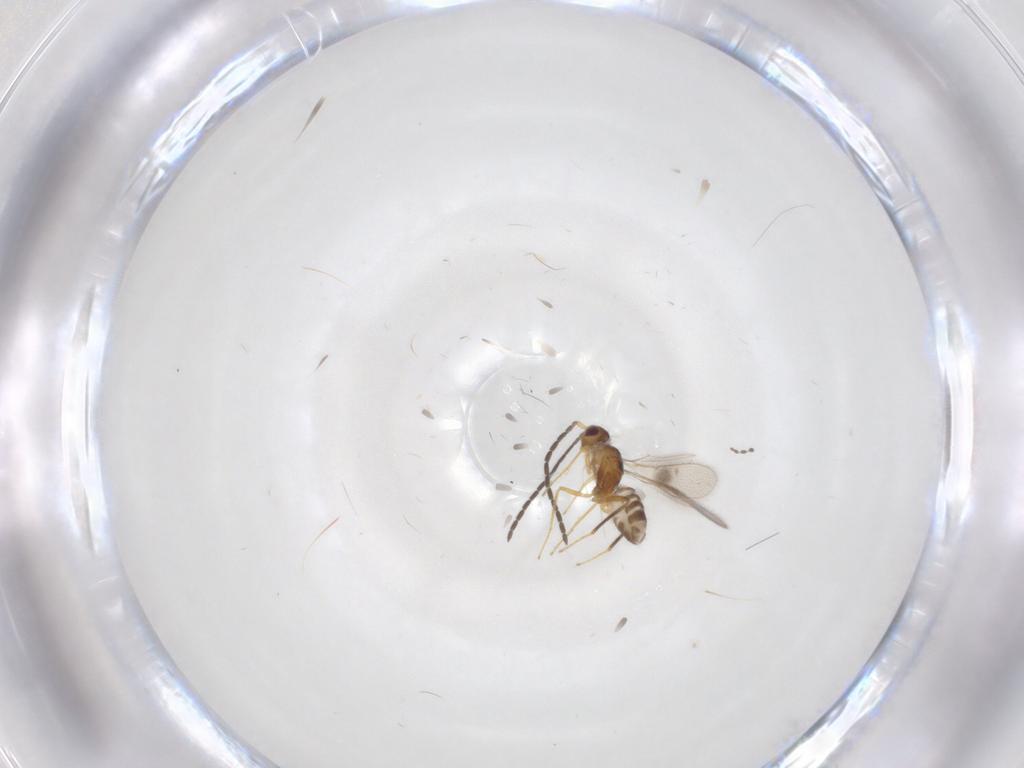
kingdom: Animalia
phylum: Arthropoda
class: Insecta
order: Hymenoptera
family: Mymaridae
